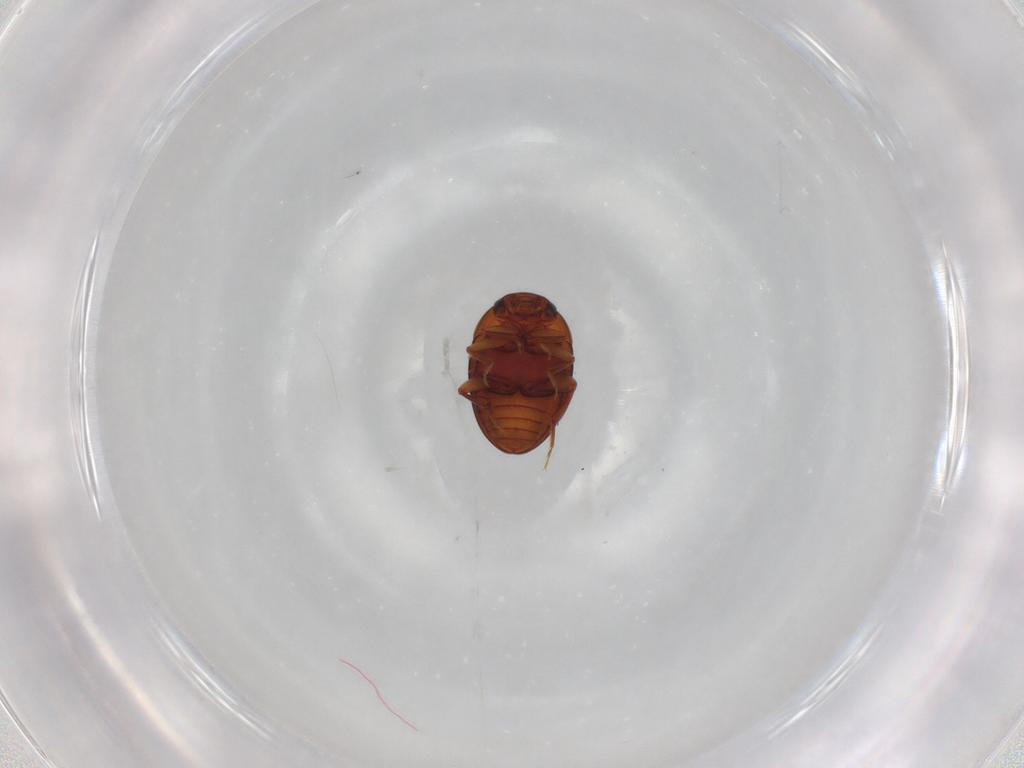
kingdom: Animalia
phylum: Arthropoda
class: Insecta
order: Coleoptera
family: Leiodidae
